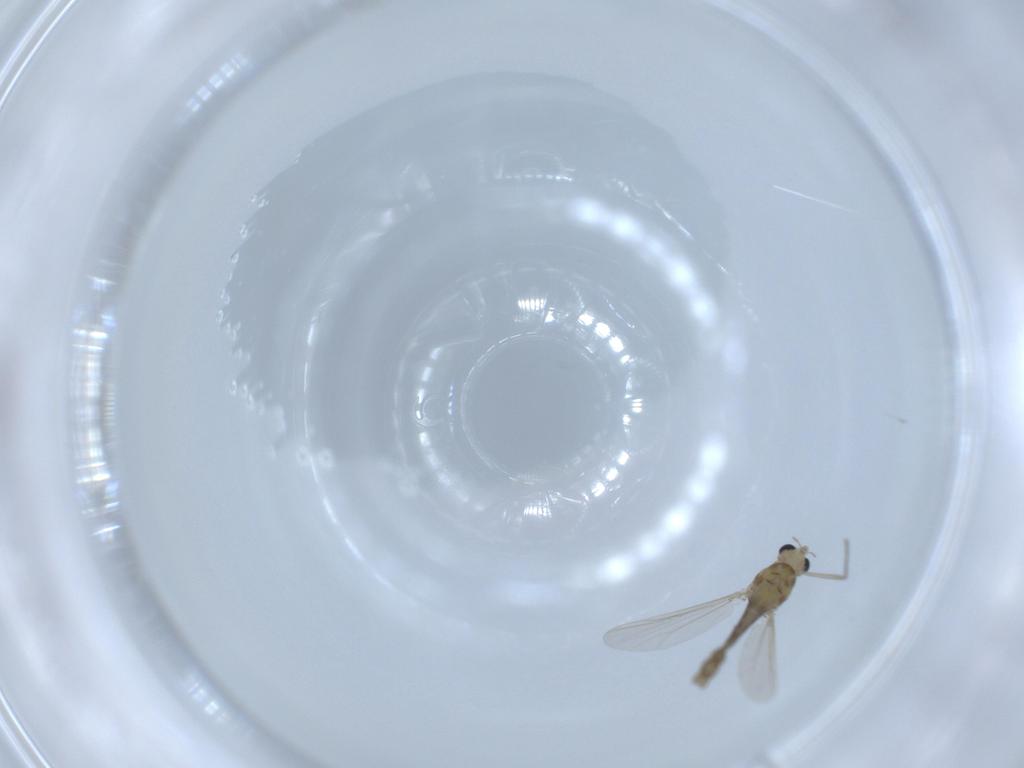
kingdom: Animalia
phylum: Arthropoda
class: Insecta
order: Diptera
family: Chironomidae
